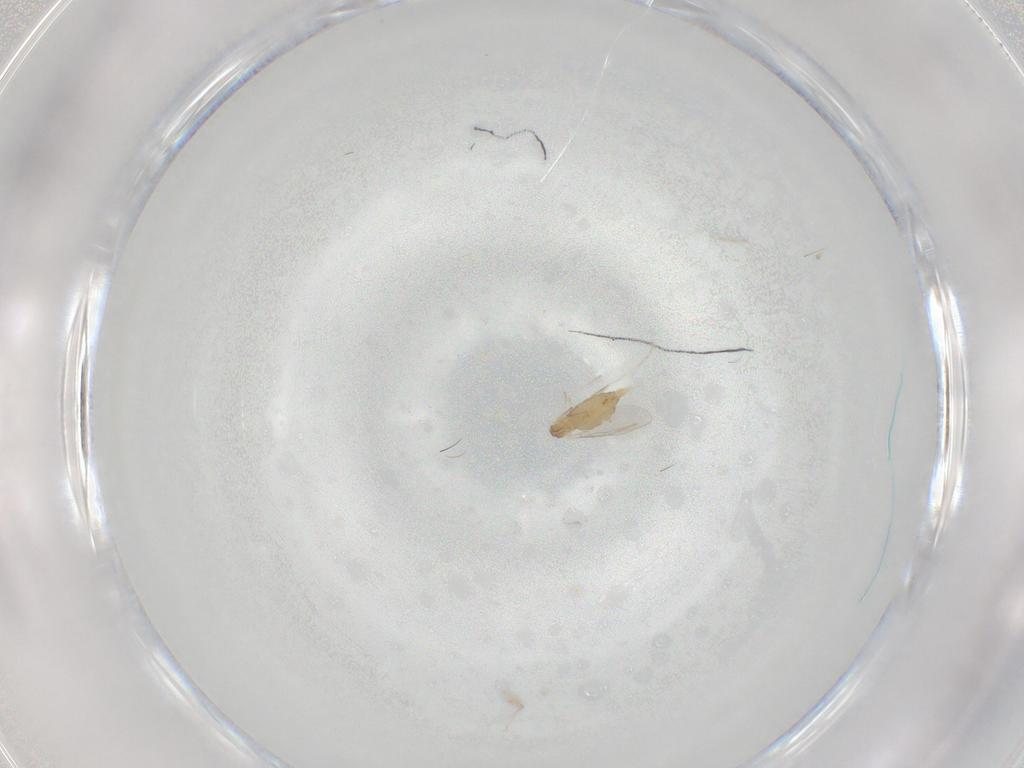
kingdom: Animalia
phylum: Arthropoda
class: Insecta
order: Diptera
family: Cecidomyiidae
